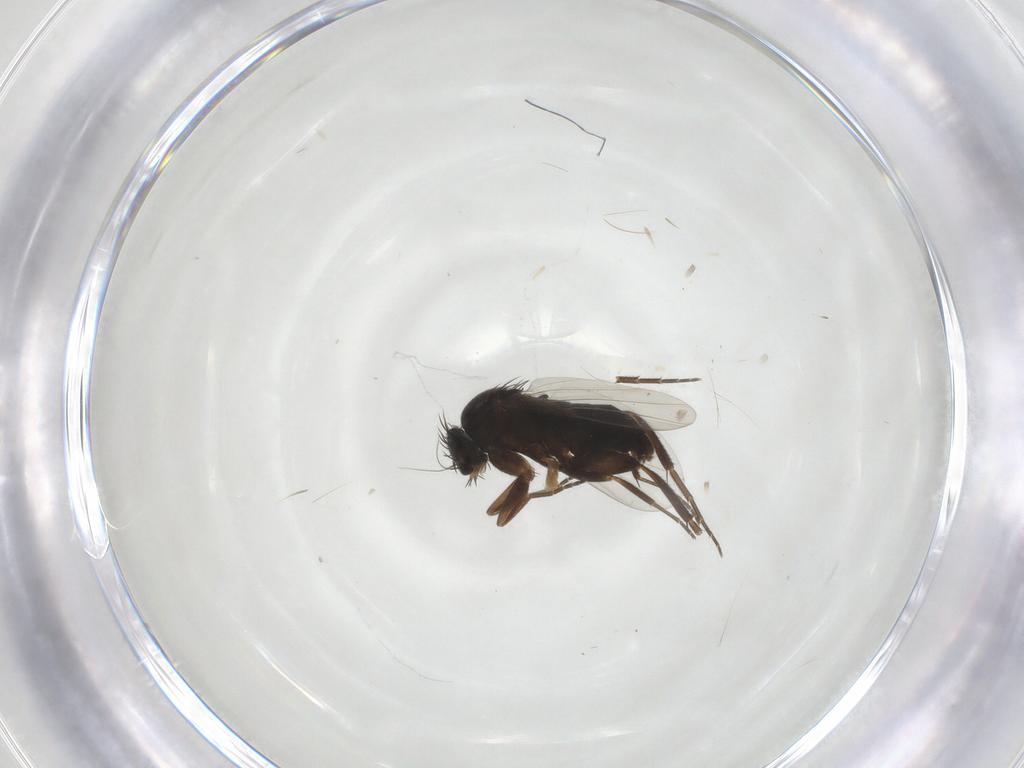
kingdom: Animalia
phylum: Arthropoda
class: Insecta
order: Diptera
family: Phoridae
